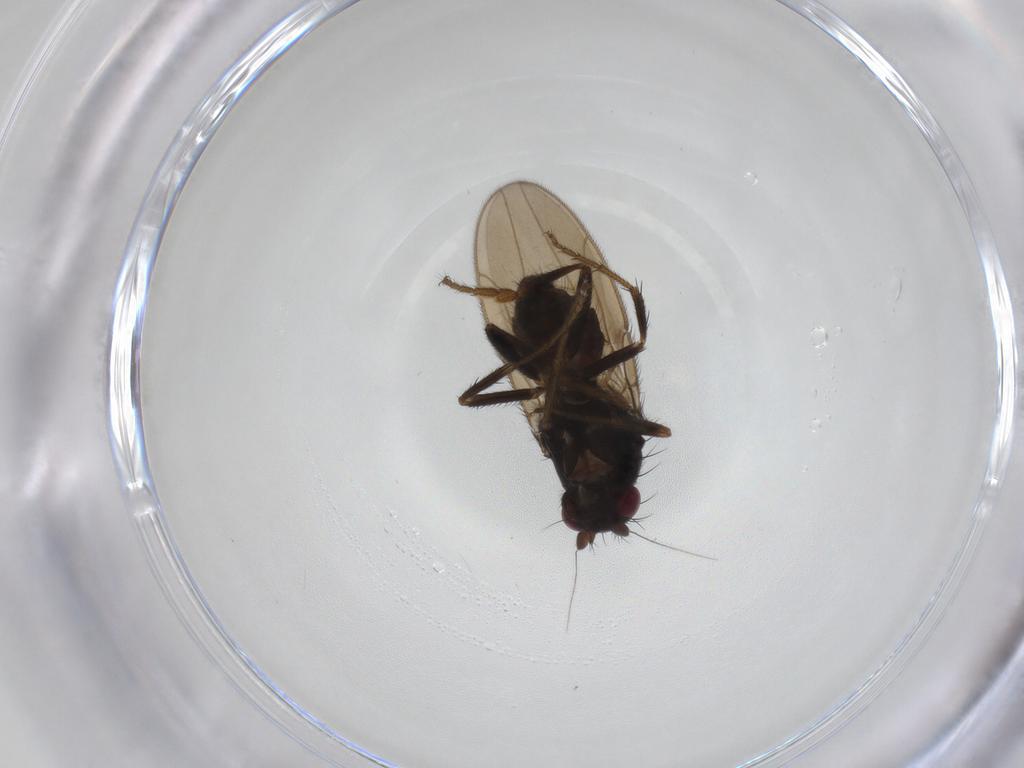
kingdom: Animalia
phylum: Arthropoda
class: Insecta
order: Diptera
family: Sphaeroceridae
